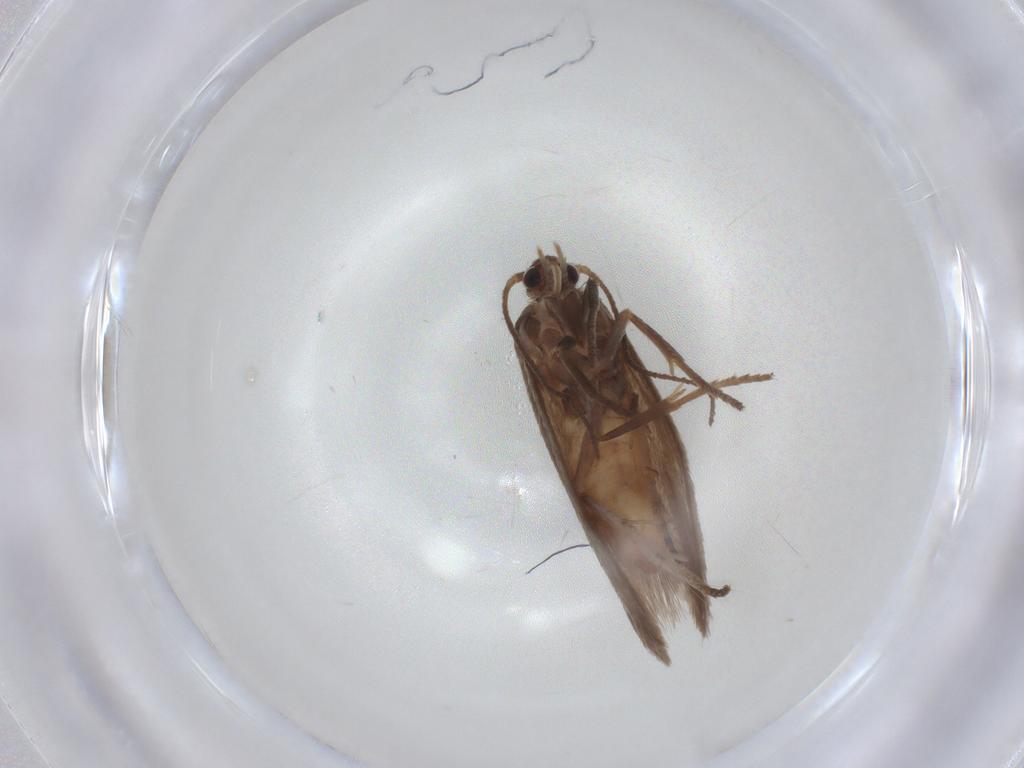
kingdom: Animalia
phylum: Arthropoda
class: Insecta
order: Lepidoptera
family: Limacodidae
